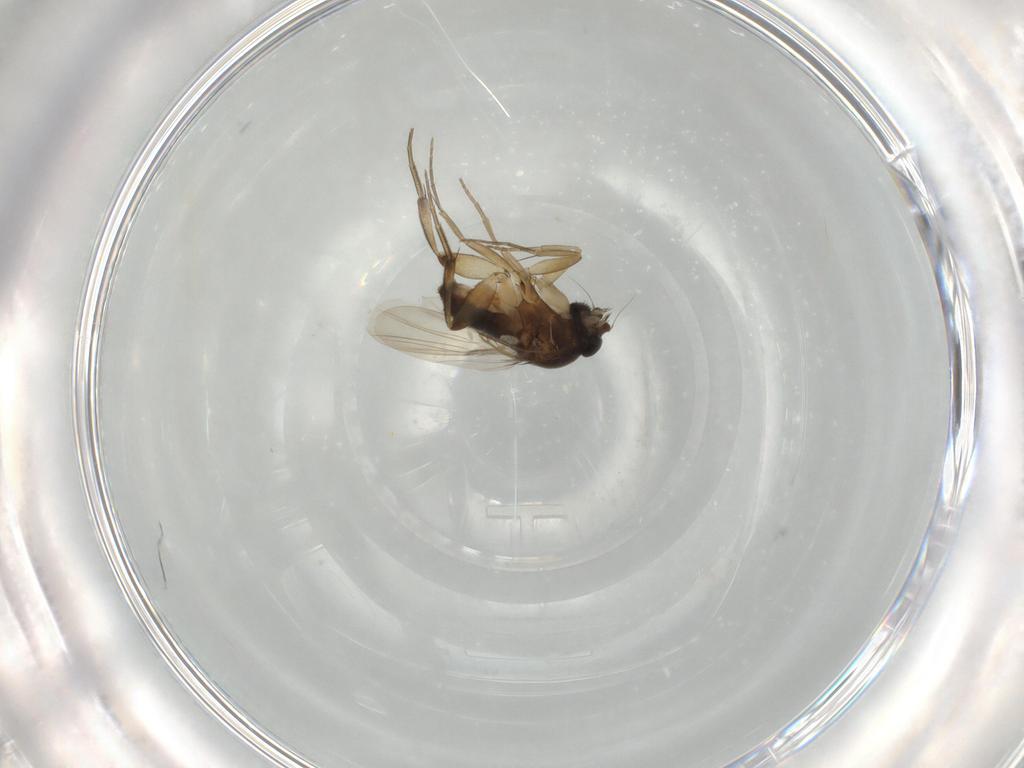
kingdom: Animalia
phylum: Arthropoda
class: Insecta
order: Diptera
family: Phoridae
